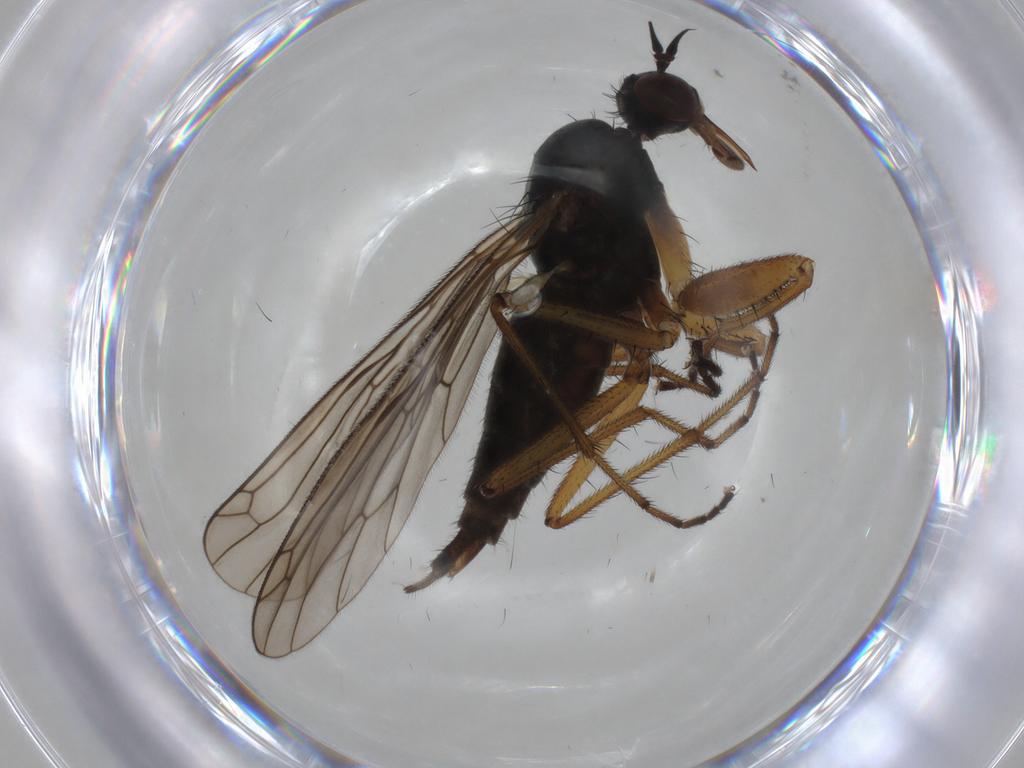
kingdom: Animalia
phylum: Arthropoda
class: Insecta
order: Diptera
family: Empididae
